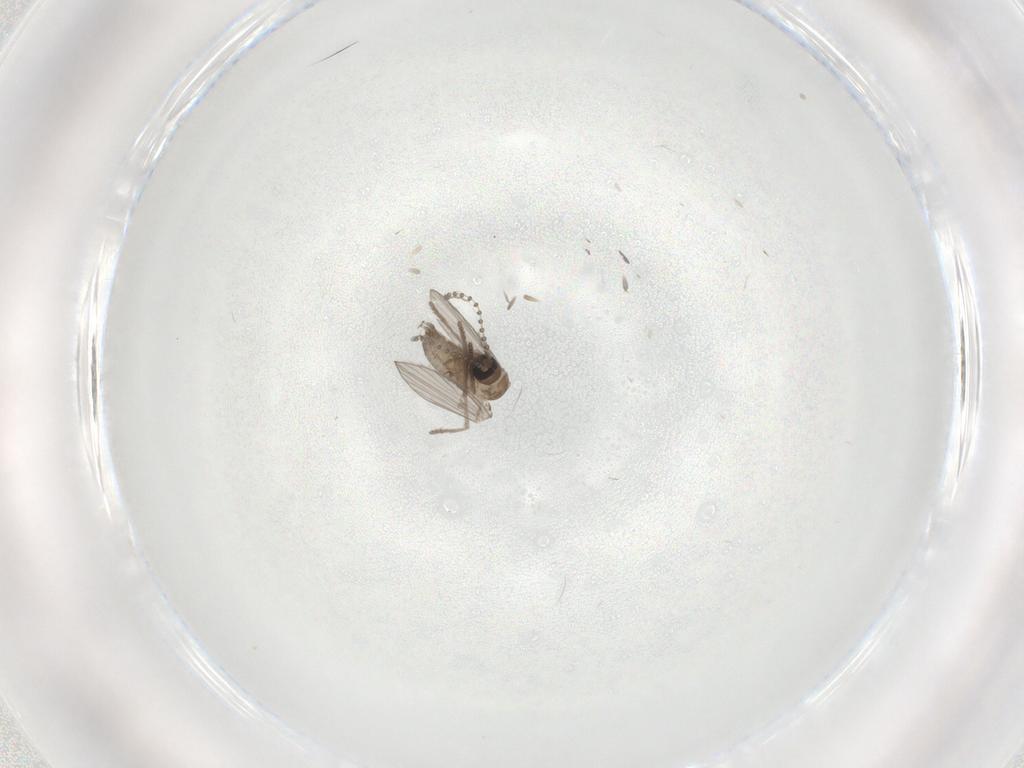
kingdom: Animalia
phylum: Arthropoda
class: Insecta
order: Diptera
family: Psychodidae
